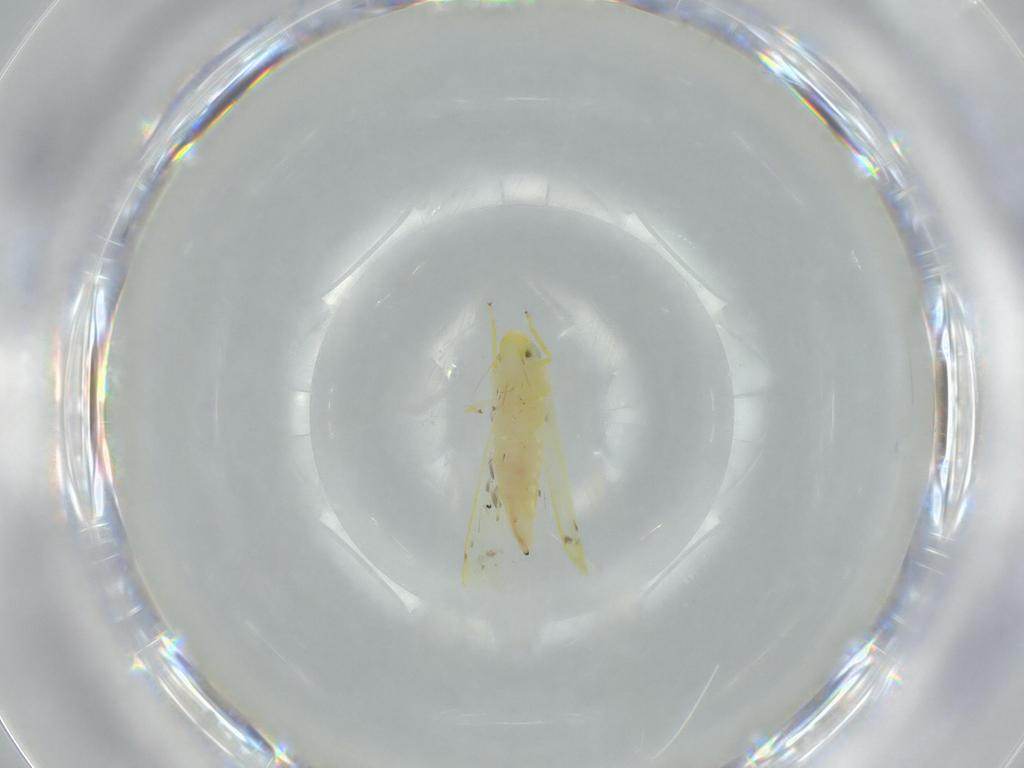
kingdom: Animalia
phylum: Arthropoda
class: Insecta
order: Hemiptera
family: Cicadellidae
